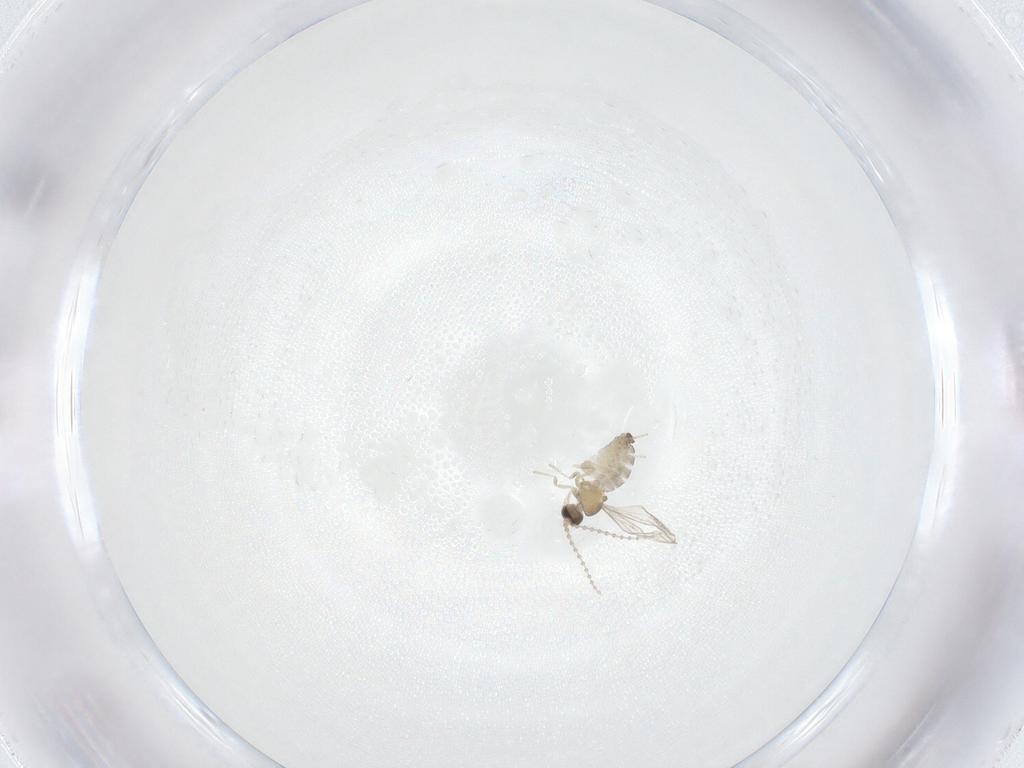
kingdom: Animalia
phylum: Arthropoda
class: Insecta
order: Diptera
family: Cecidomyiidae
